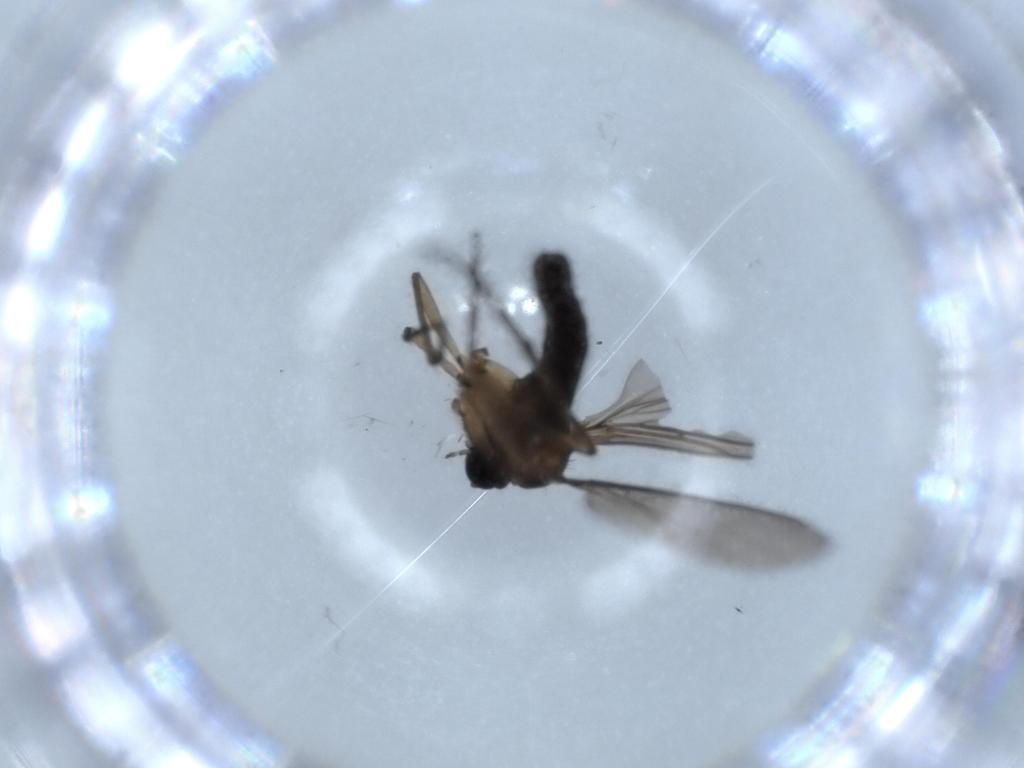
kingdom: Animalia
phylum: Arthropoda
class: Insecta
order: Diptera
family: Sciaridae
